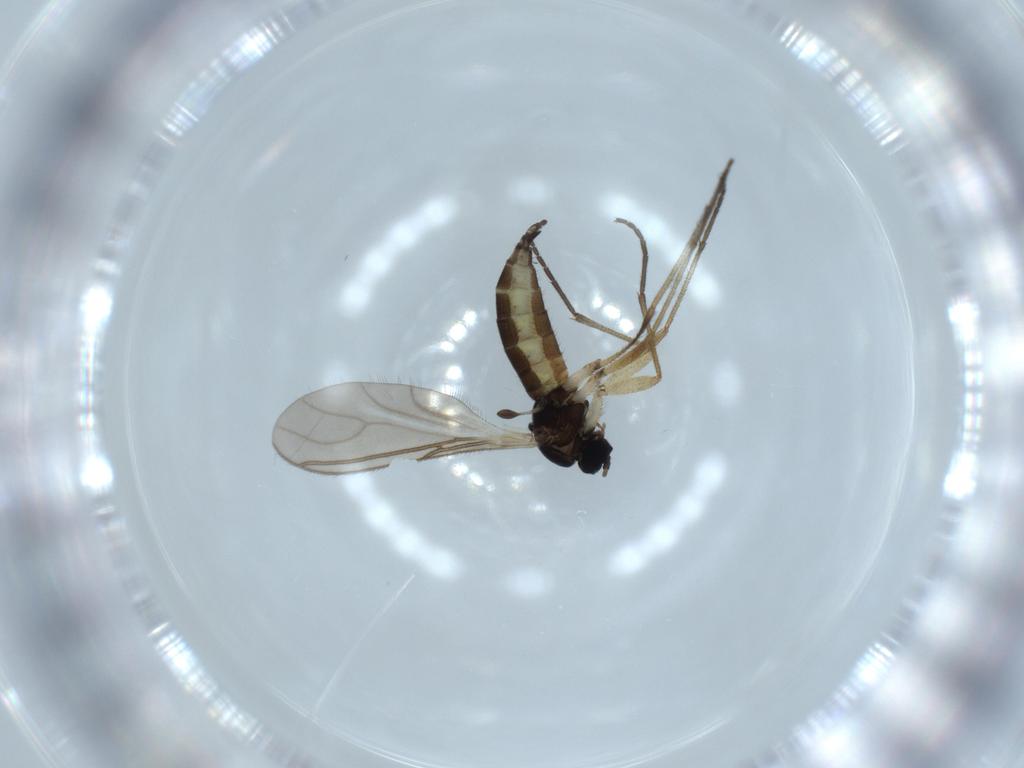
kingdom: Animalia
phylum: Arthropoda
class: Insecta
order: Diptera
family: Sciaridae
